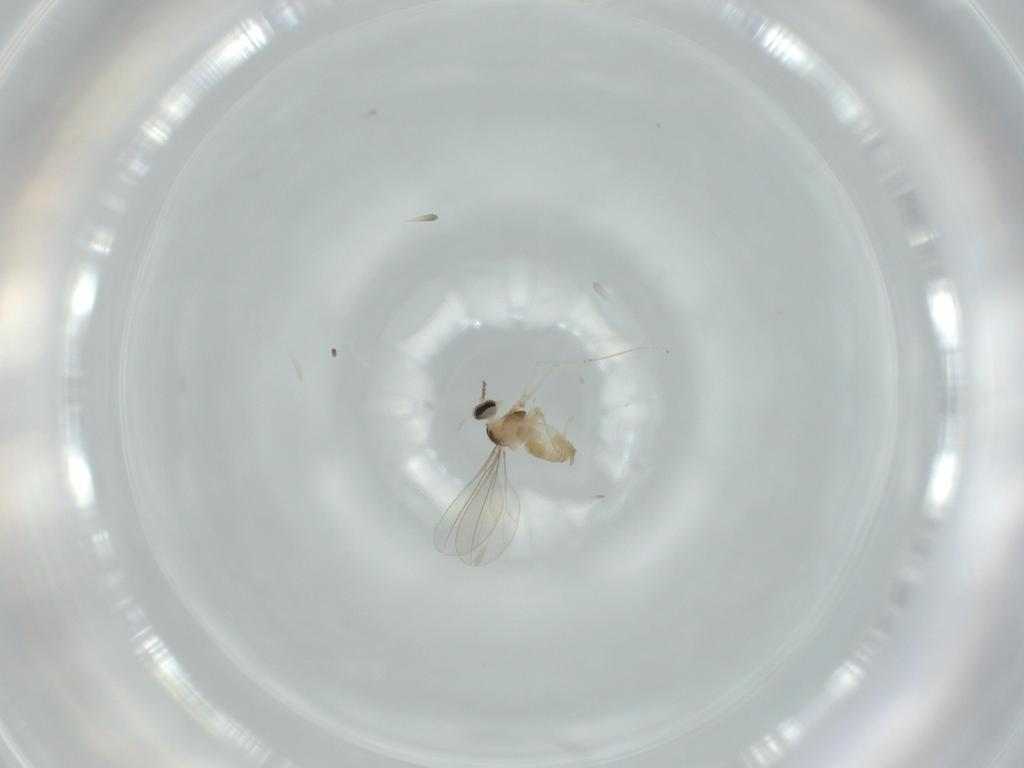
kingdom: Animalia
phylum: Arthropoda
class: Insecta
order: Diptera
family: Cecidomyiidae
